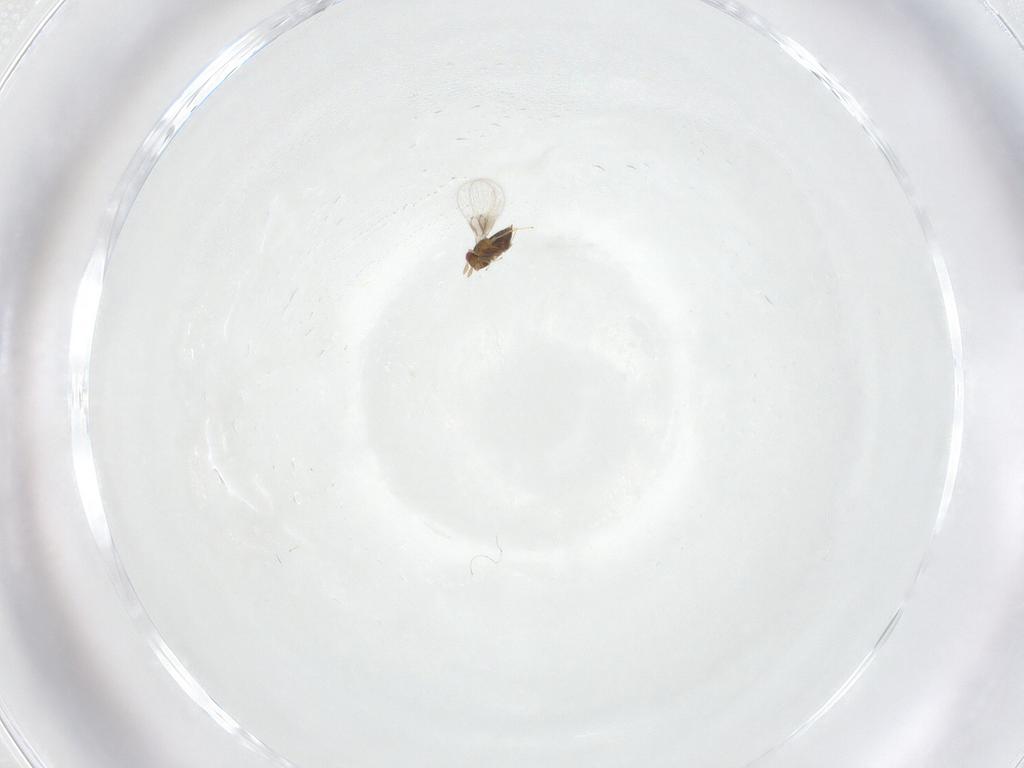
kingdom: Animalia
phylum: Arthropoda
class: Insecta
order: Hymenoptera
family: Trichogrammatidae
